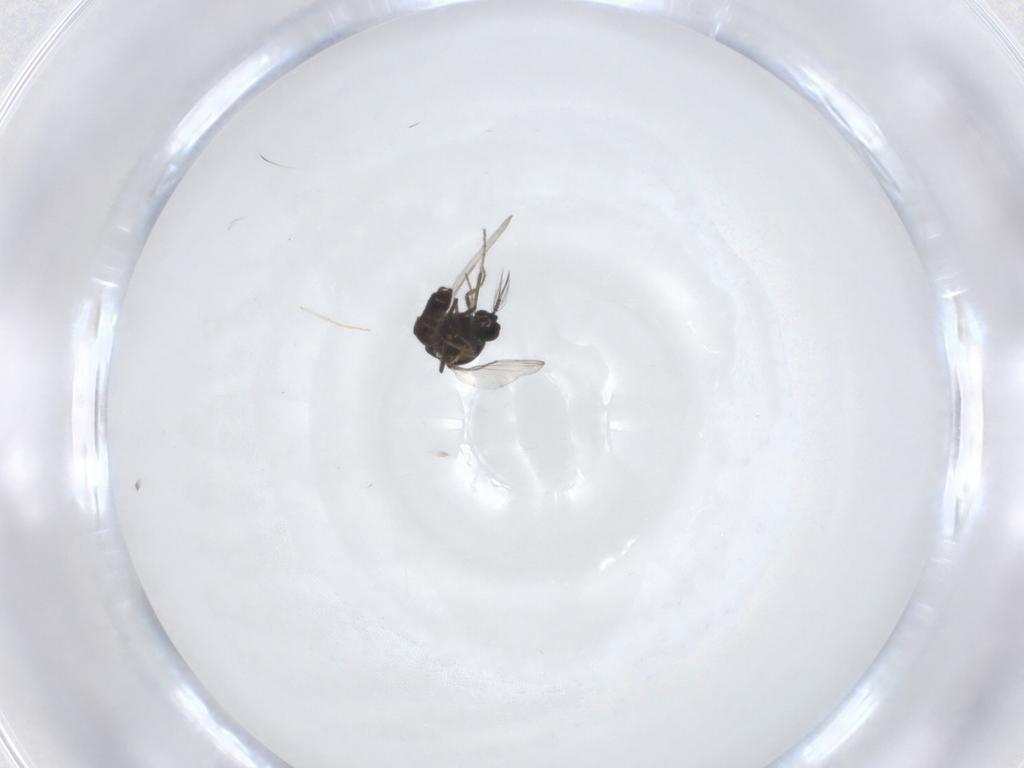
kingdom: Animalia
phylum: Arthropoda
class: Insecta
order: Diptera
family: Ceratopogonidae
